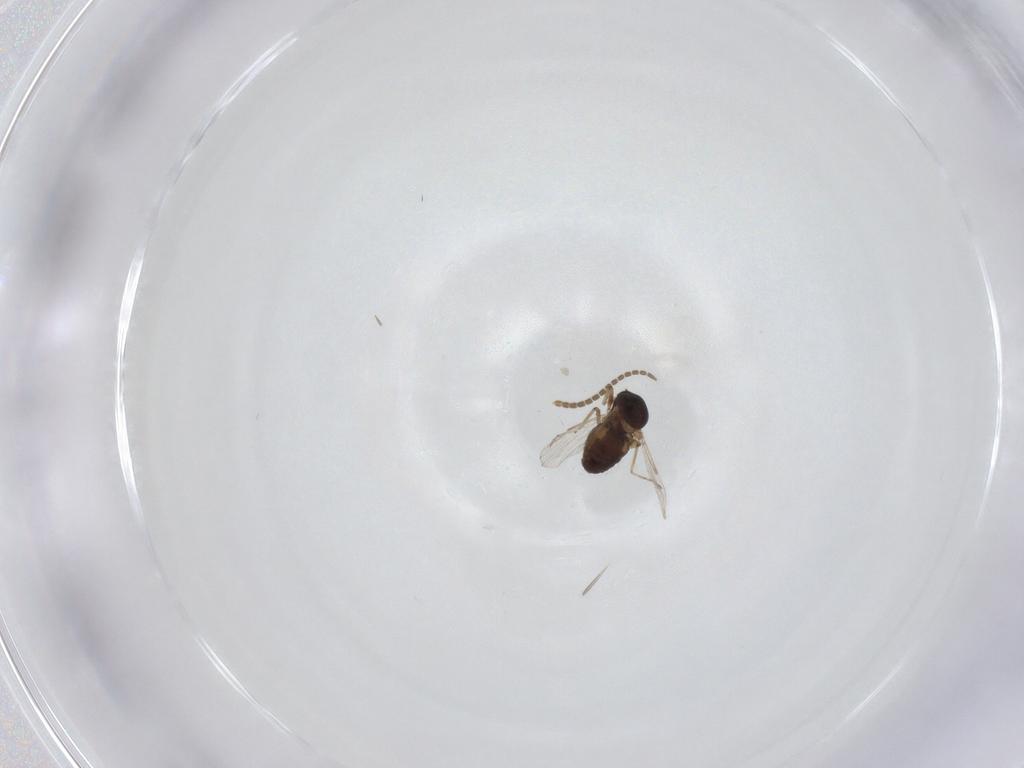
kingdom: Animalia
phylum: Arthropoda
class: Insecta
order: Diptera
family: Ceratopogonidae
